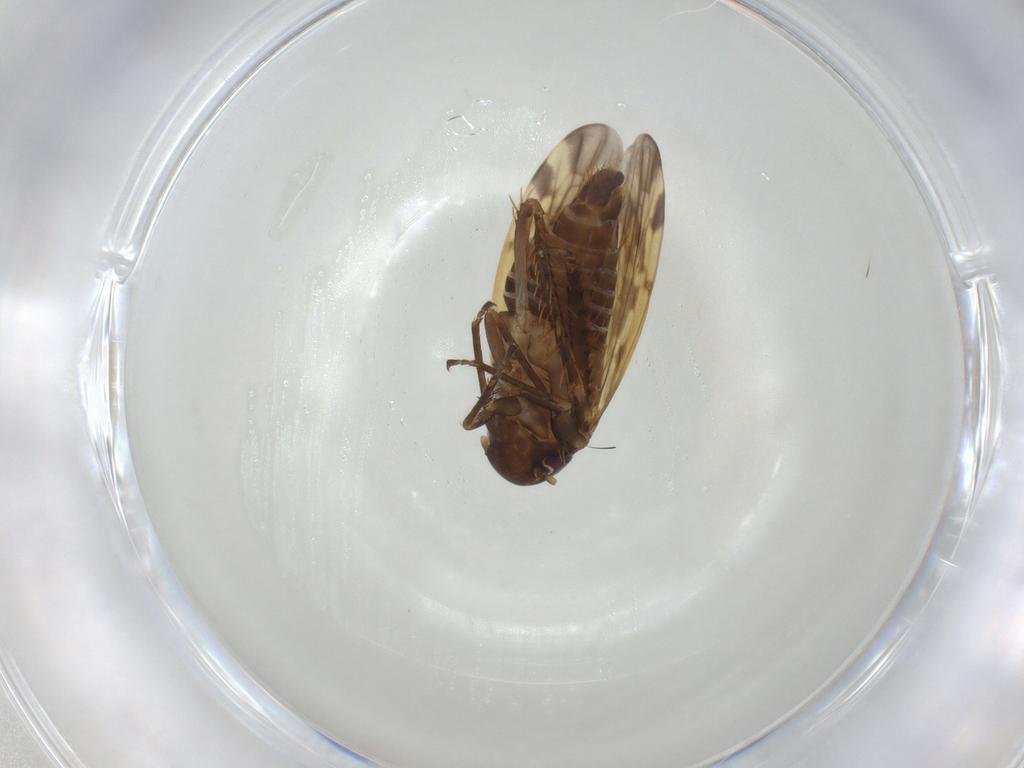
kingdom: Animalia
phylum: Arthropoda
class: Insecta
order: Hemiptera
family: Cicadellidae
